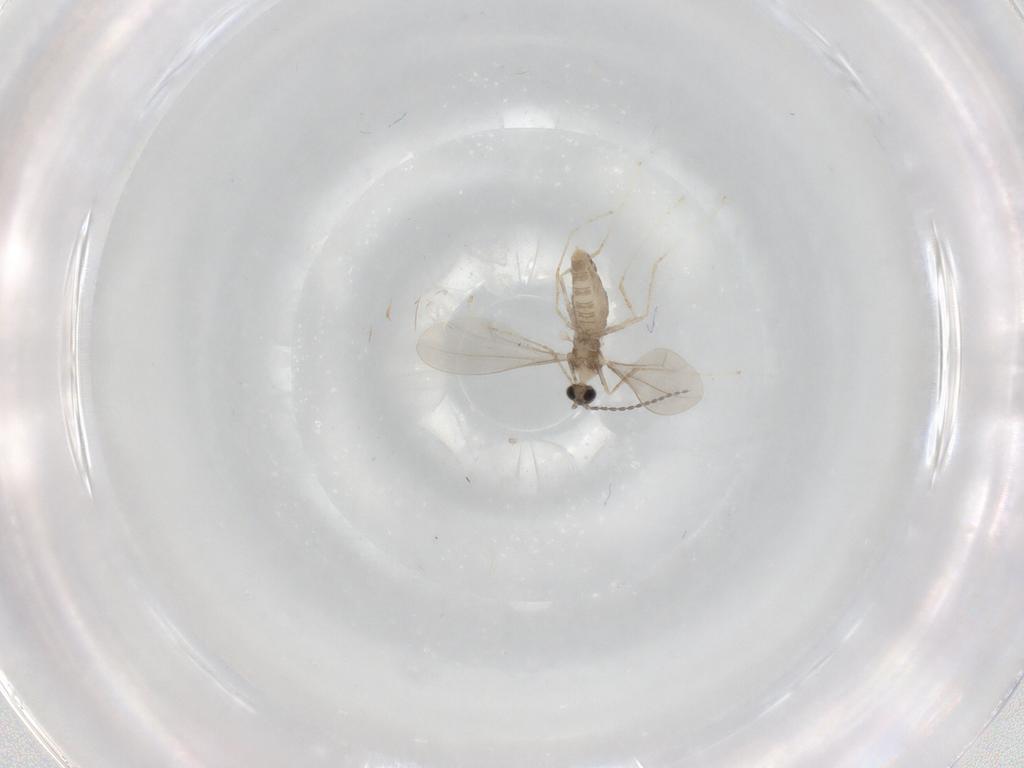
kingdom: Animalia
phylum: Arthropoda
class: Insecta
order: Diptera
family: Cecidomyiidae
